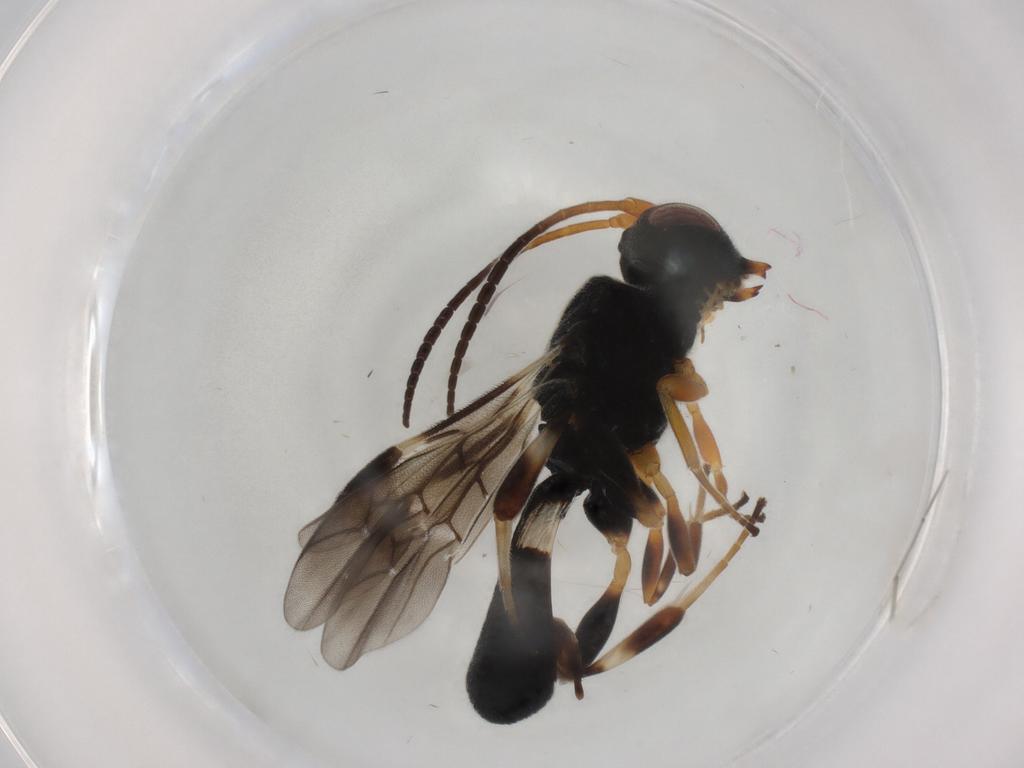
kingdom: Animalia
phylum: Arthropoda
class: Insecta
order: Hymenoptera
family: Braconidae
